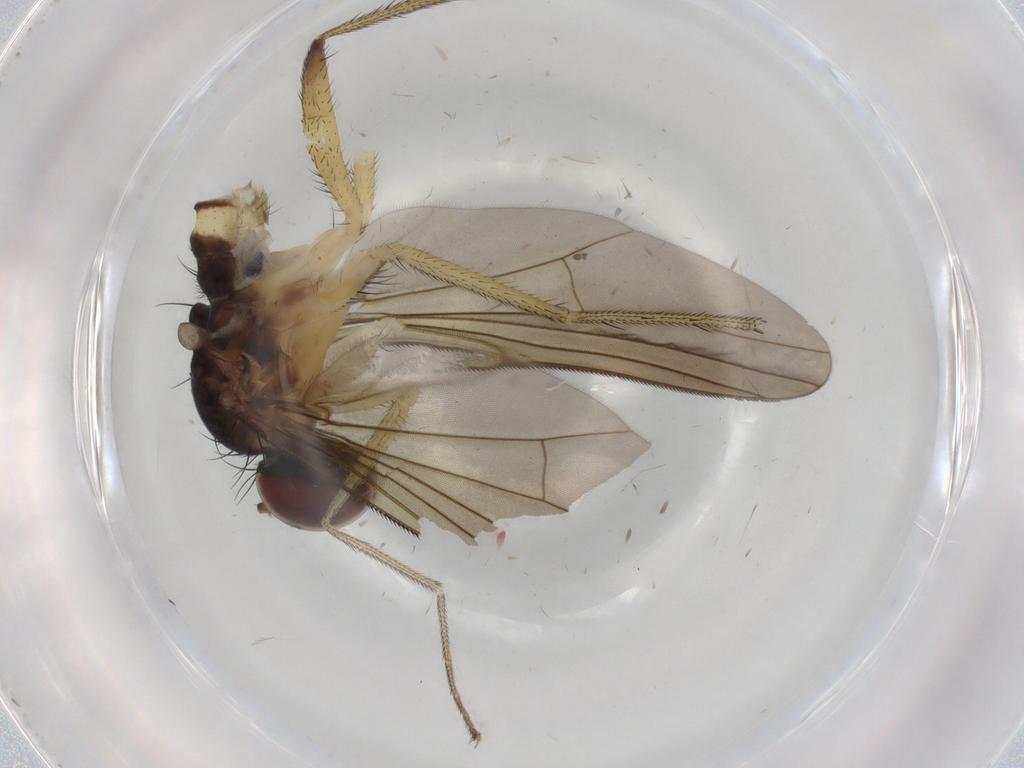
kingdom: Animalia
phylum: Arthropoda
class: Insecta
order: Diptera
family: Dolichopodidae
